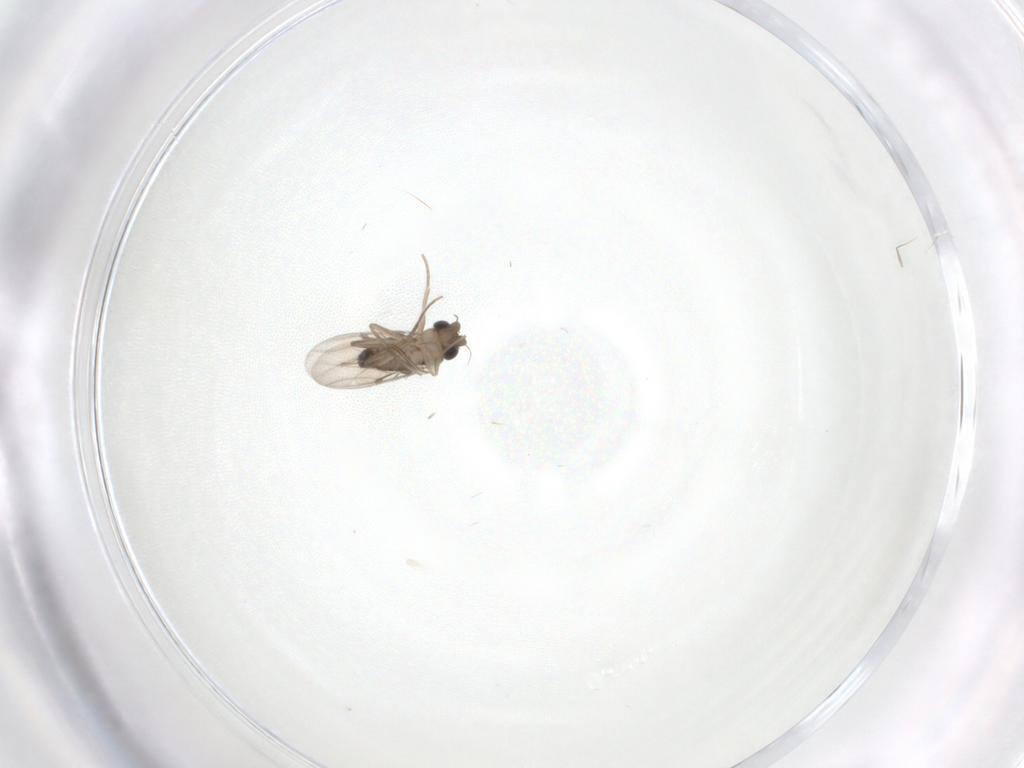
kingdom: Animalia
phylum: Arthropoda
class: Insecta
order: Diptera
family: Phoridae
